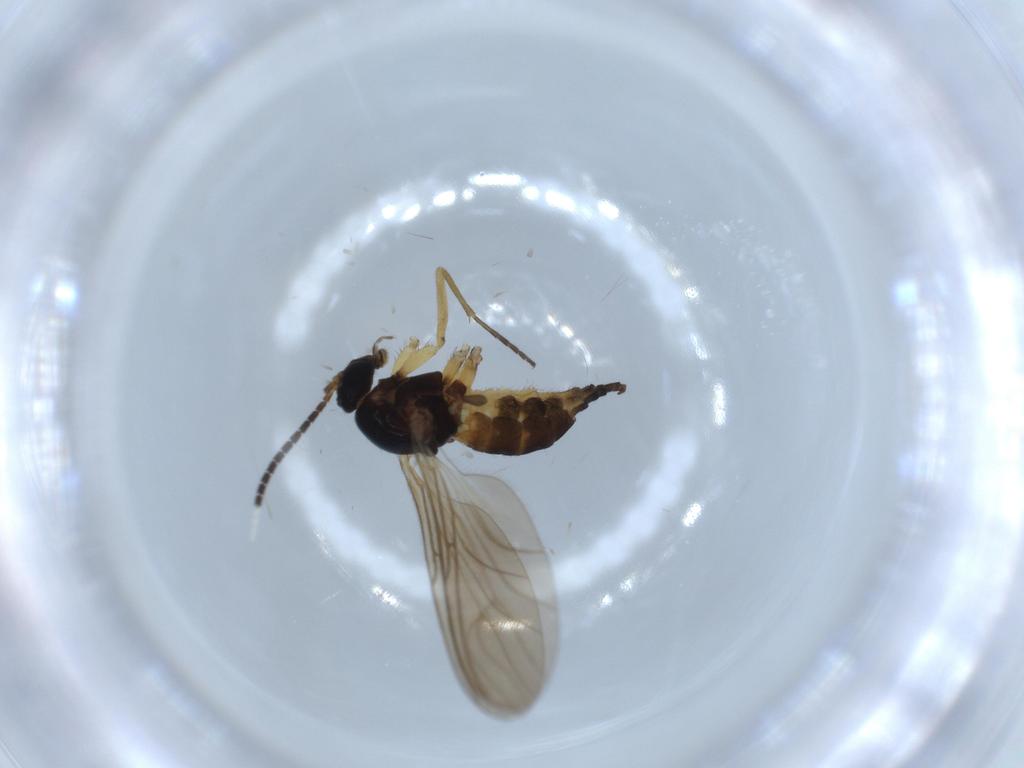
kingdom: Animalia
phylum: Arthropoda
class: Insecta
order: Diptera
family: Sciaridae
